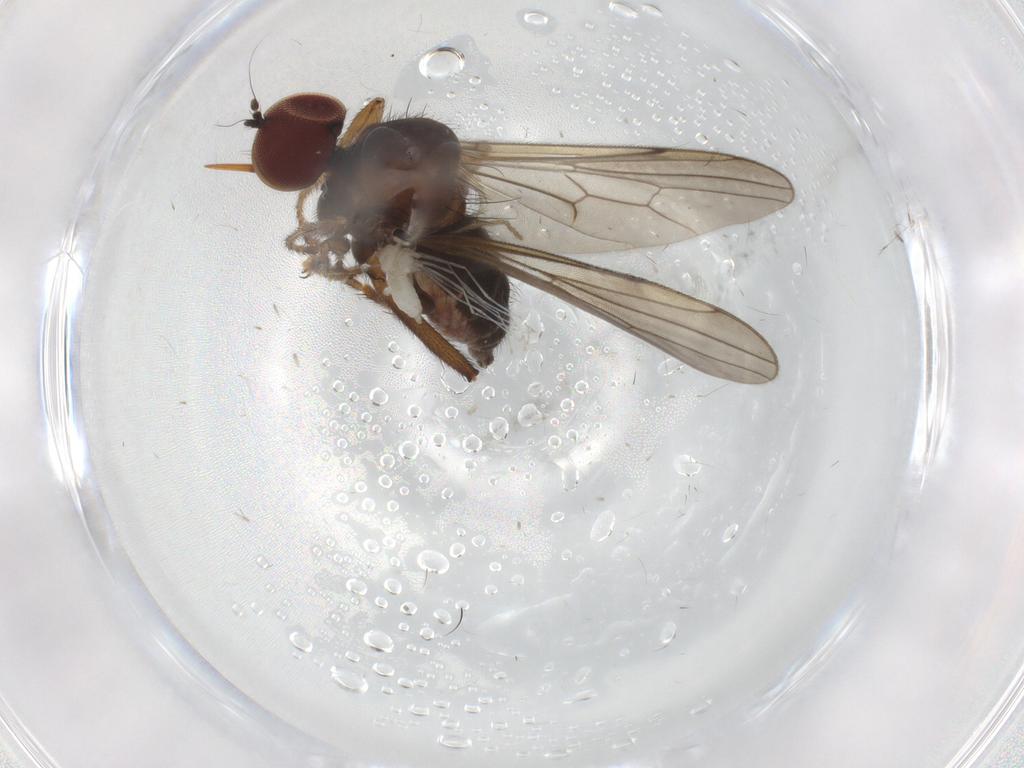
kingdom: Animalia
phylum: Arthropoda
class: Insecta
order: Diptera
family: Hybotidae
